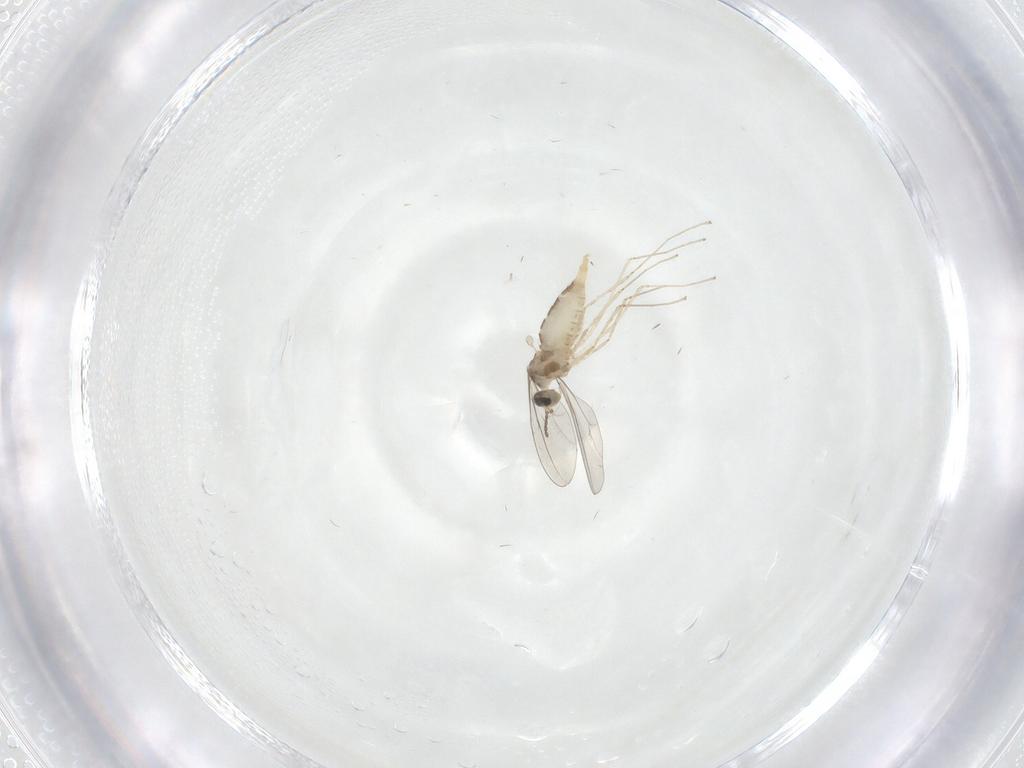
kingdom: Animalia
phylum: Arthropoda
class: Insecta
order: Diptera
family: Cecidomyiidae
